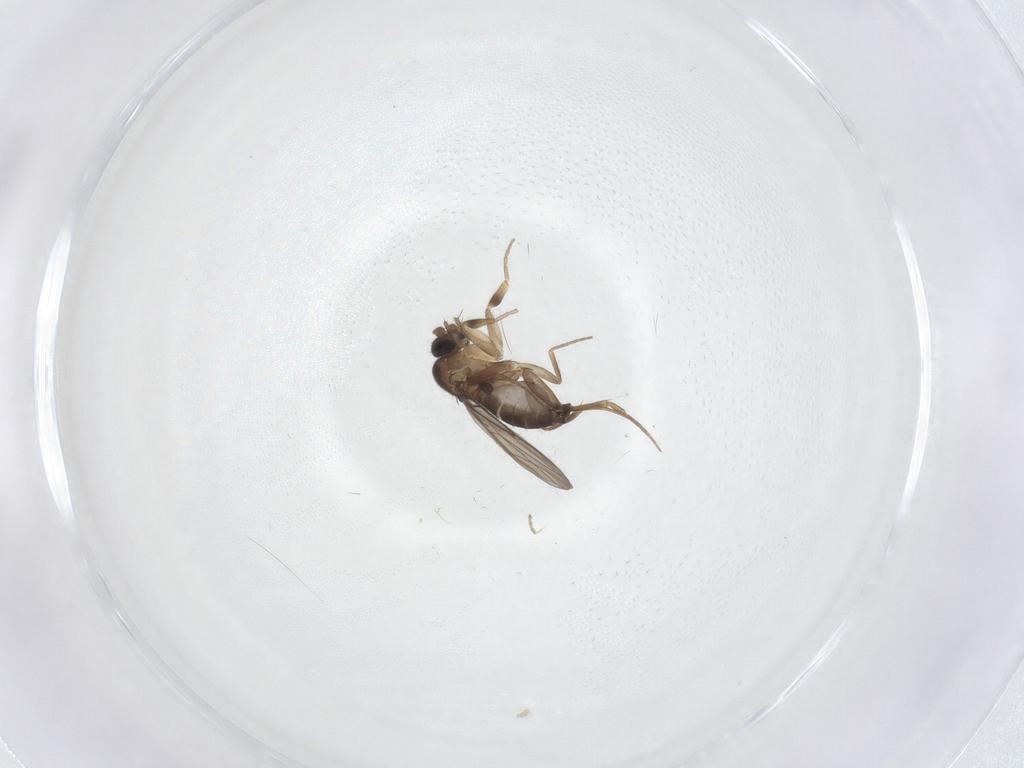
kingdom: Animalia
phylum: Arthropoda
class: Insecta
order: Diptera
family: Phoridae
